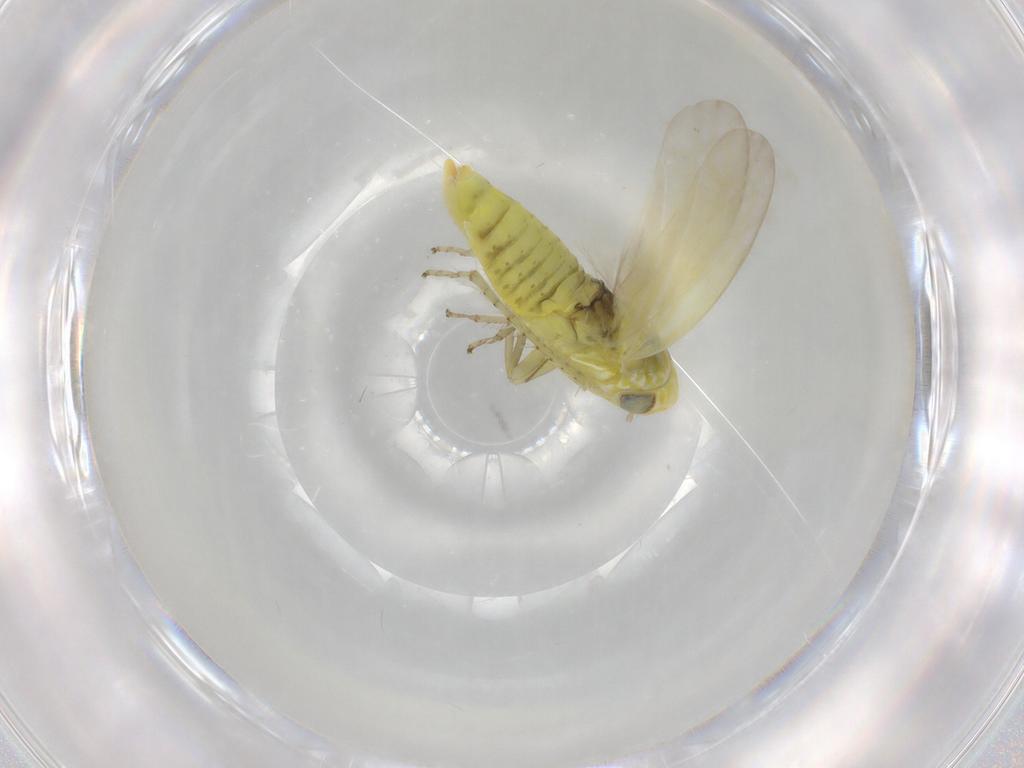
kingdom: Animalia
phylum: Arthropoda
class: Insecta
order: Hemiptera
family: Cicadellidae
